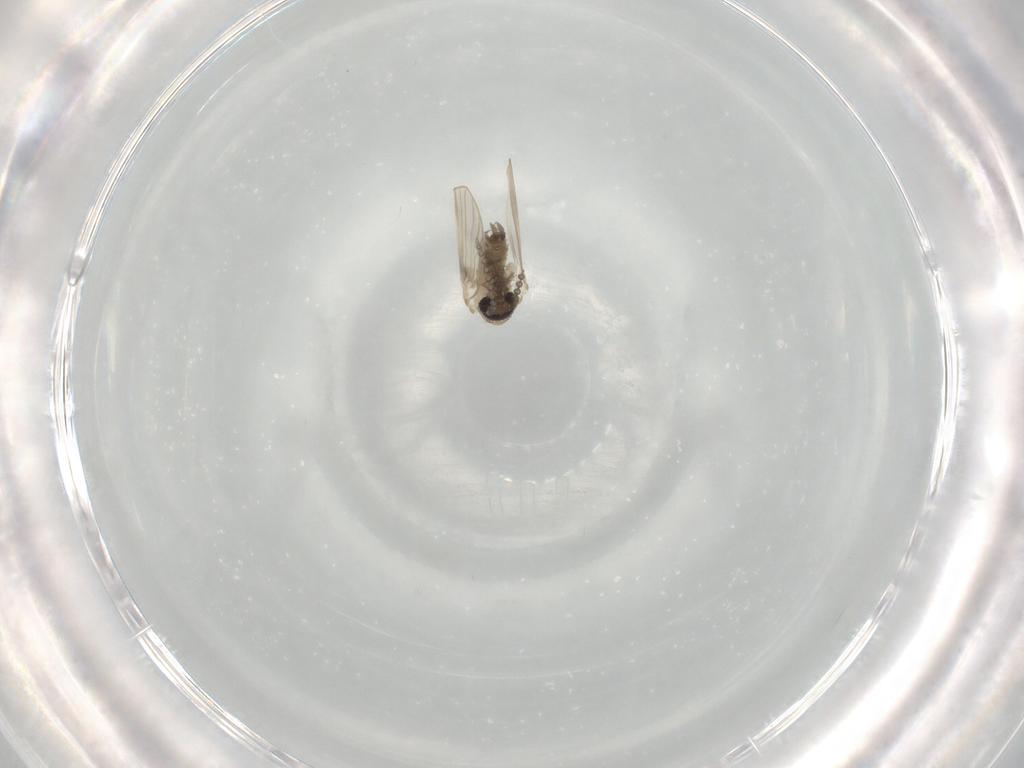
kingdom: Animalia
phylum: Arthropoda
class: Insecta
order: Diptera
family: Psychodidae
